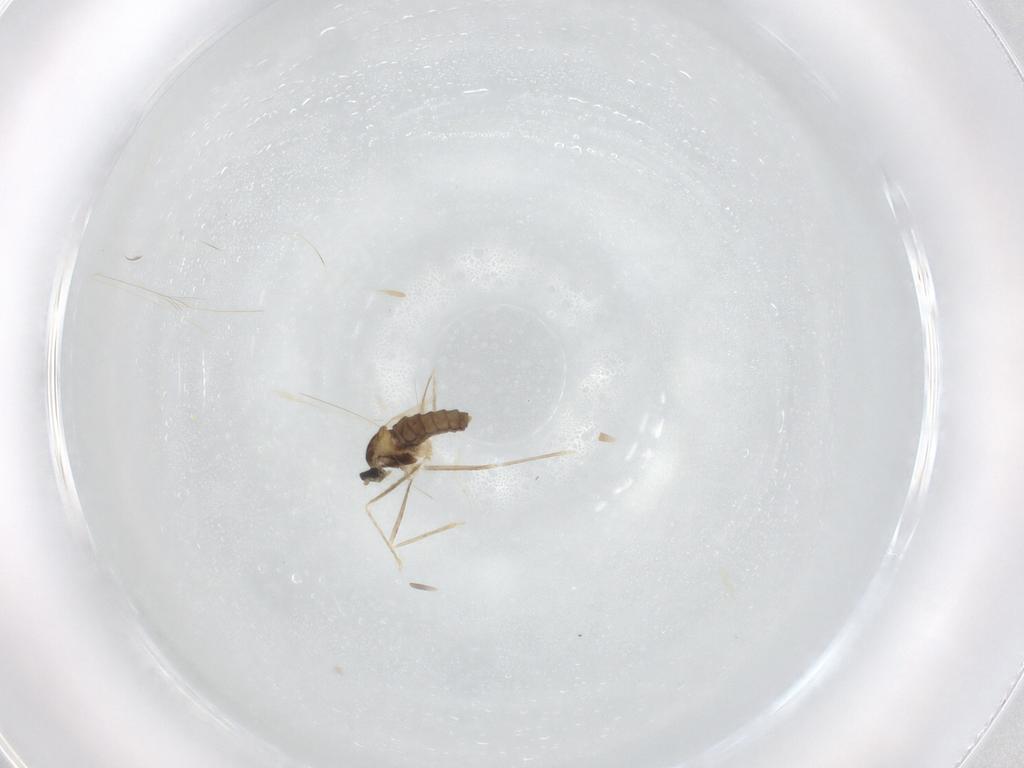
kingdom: Animalia
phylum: Arthropoda
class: Insecta
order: Diptera
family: Cecidomyiidae
